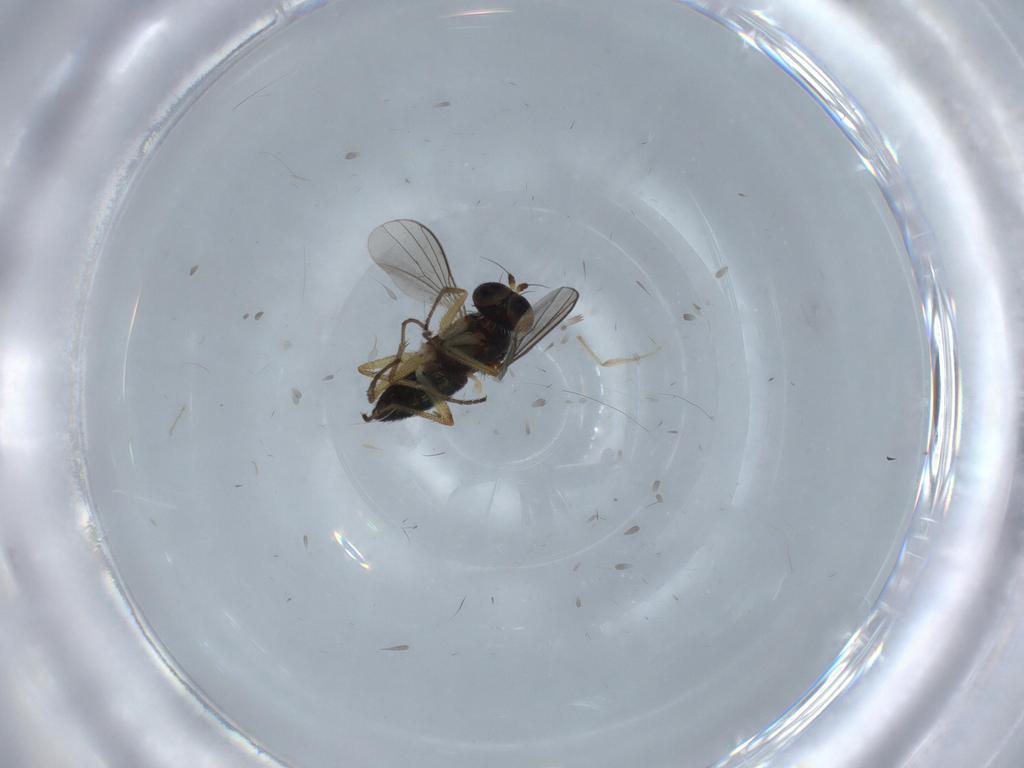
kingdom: Animalia
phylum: Arthropoda
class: Insecta
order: Diptera
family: Dolichopodidae
